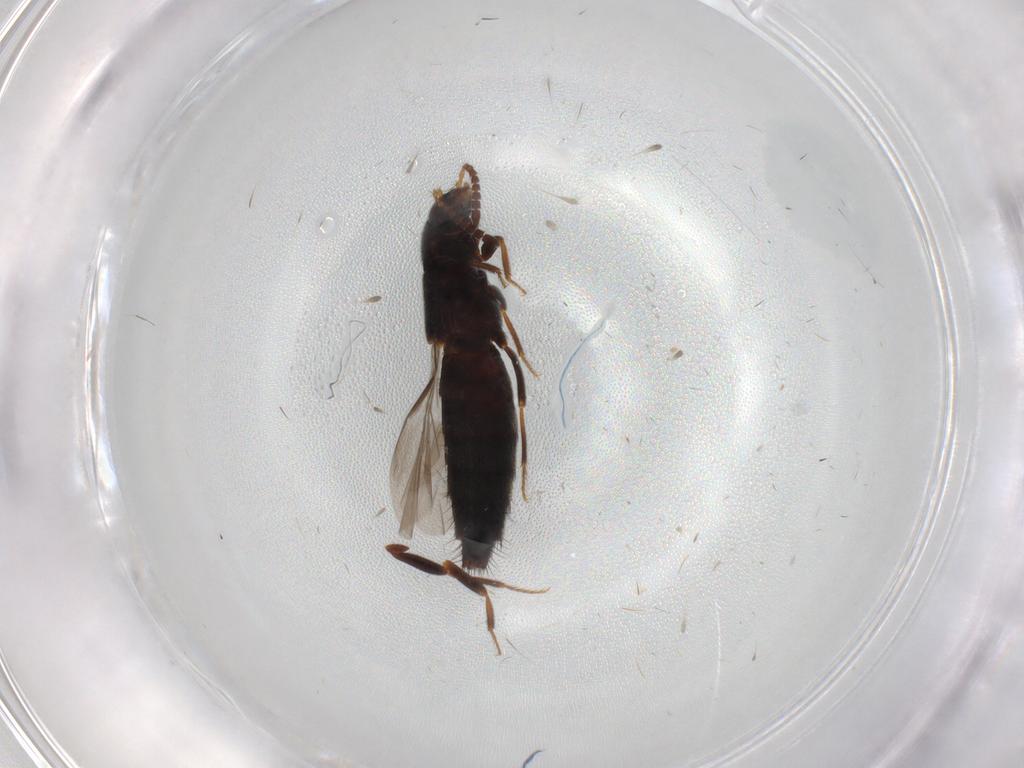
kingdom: Animalia
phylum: Arthropoda
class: Insecta
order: Coleoptera
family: Staphylinidae
